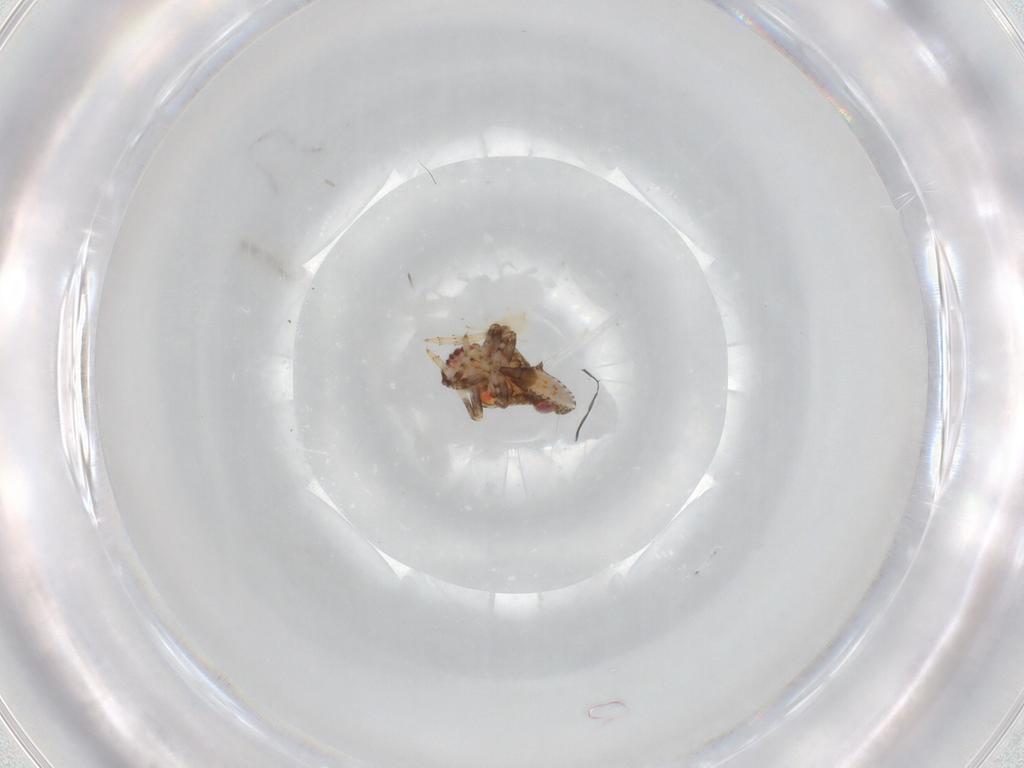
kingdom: Animalia
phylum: Arthropoda
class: Insecta
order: Hemiptera
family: Tropiduchidae
